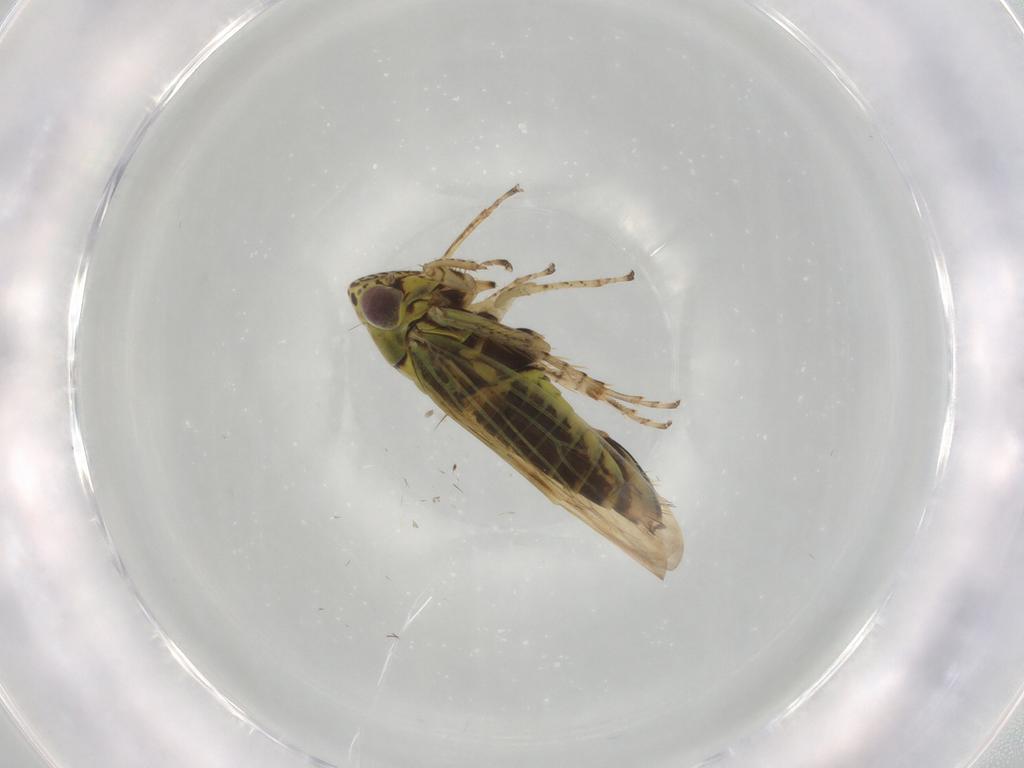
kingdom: Animalia
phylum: Arthropoda
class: Insecta
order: Hemiptera
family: Cicadellidae
